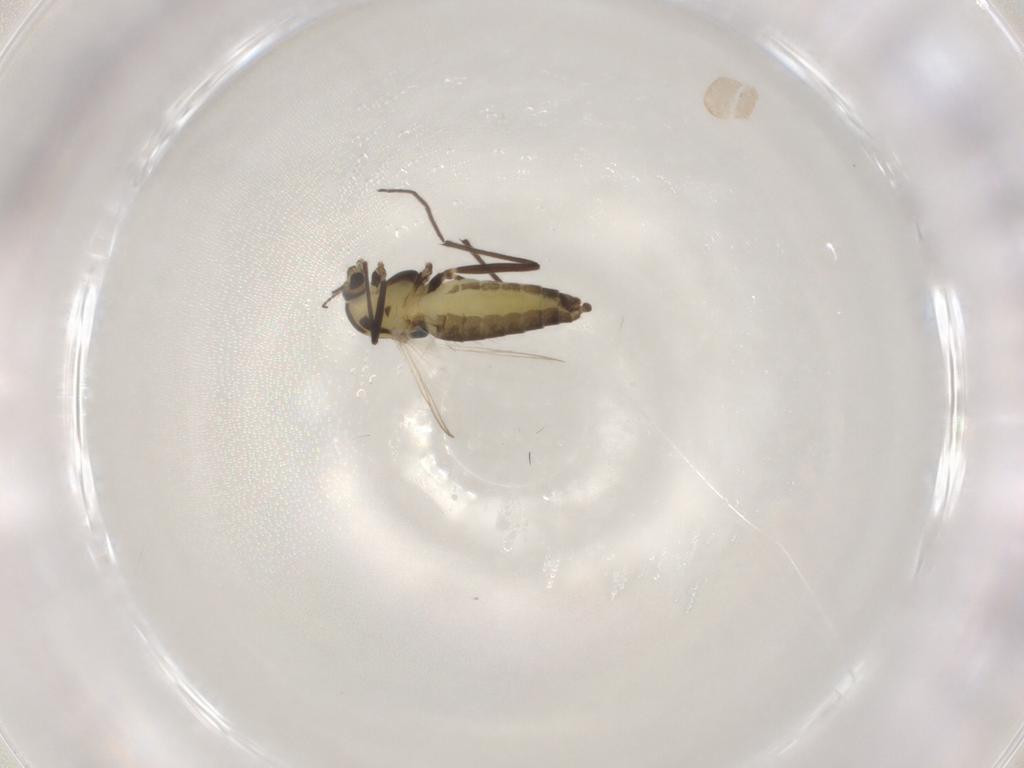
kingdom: Animalia
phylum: Arthropoda
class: Insecta
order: Diptera
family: Chironomidae
